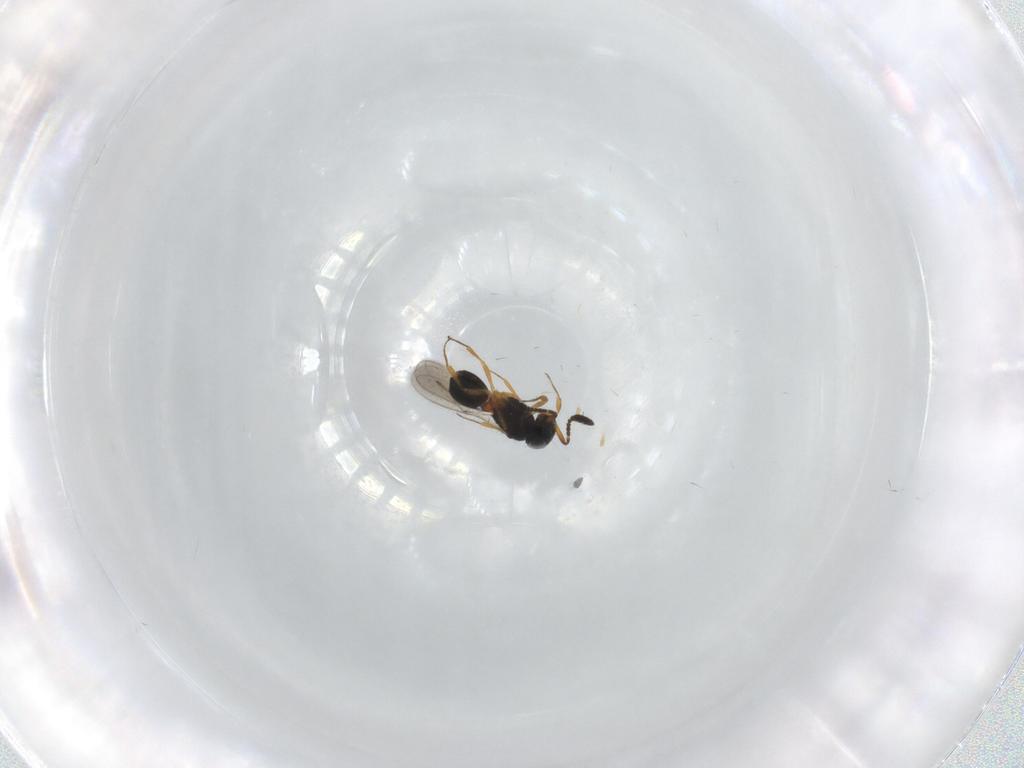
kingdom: Animalia
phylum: Arthropoda
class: Insecta
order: Hymenoptera
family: Scelionidae
